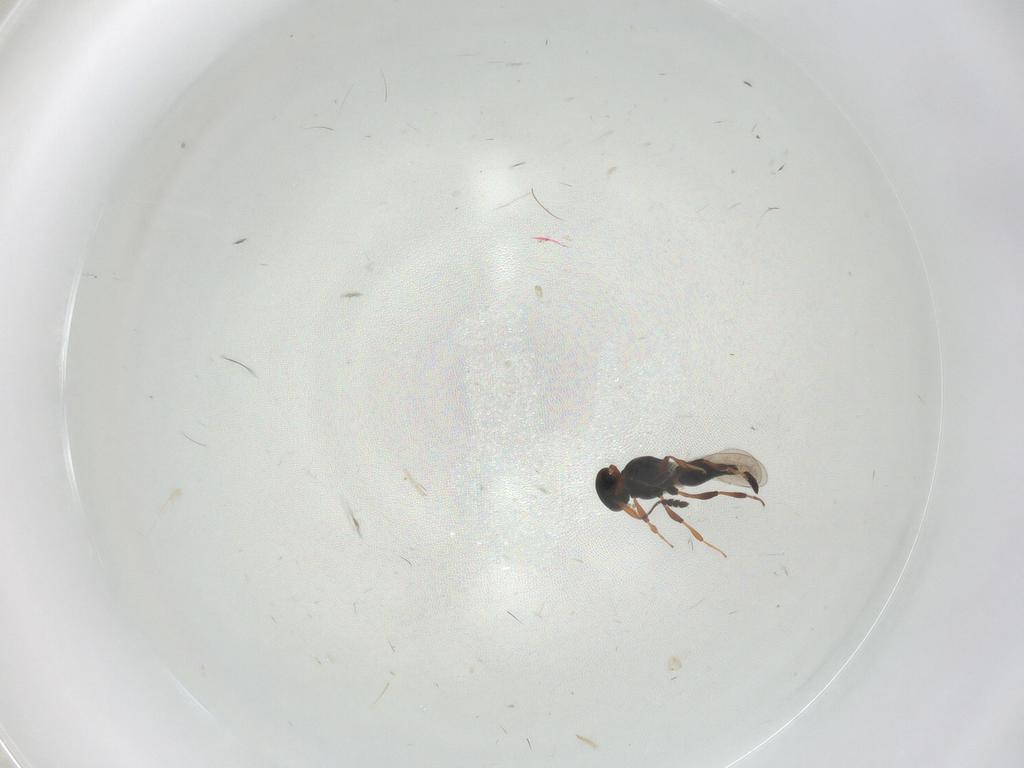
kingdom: Animalia
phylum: Arthropoda
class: Insecta
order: Hymenoptera
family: Platygastridae
